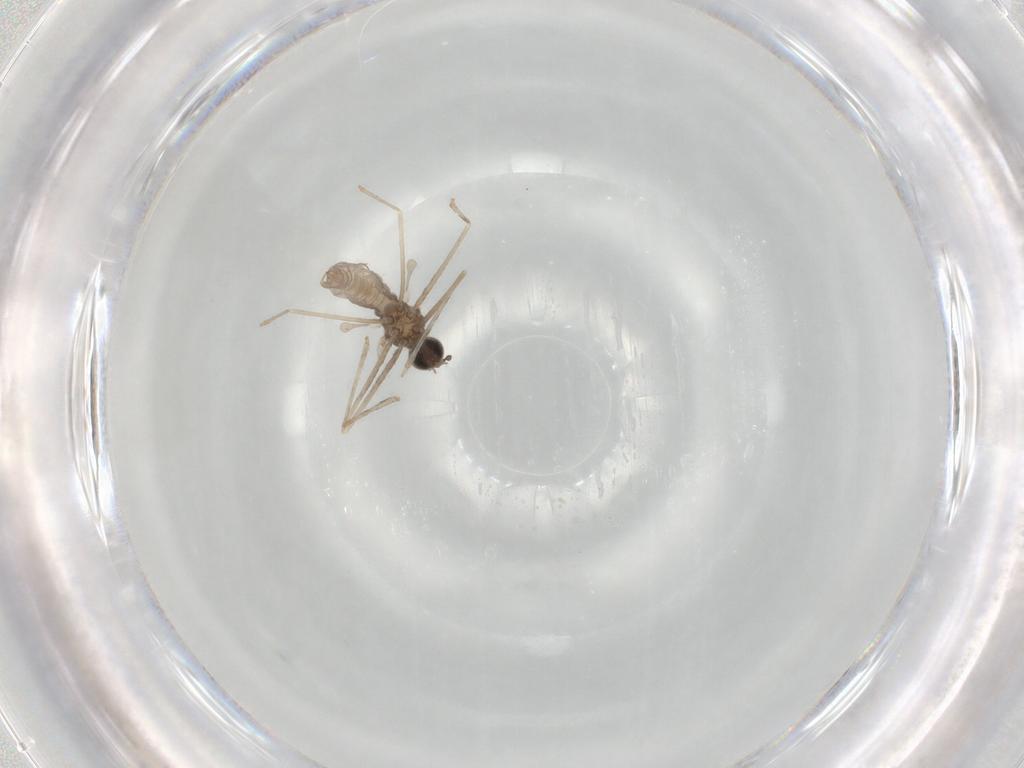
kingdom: Animalia
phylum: Arthropoda
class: Insecta
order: Diptera
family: Cecidomyiidae
